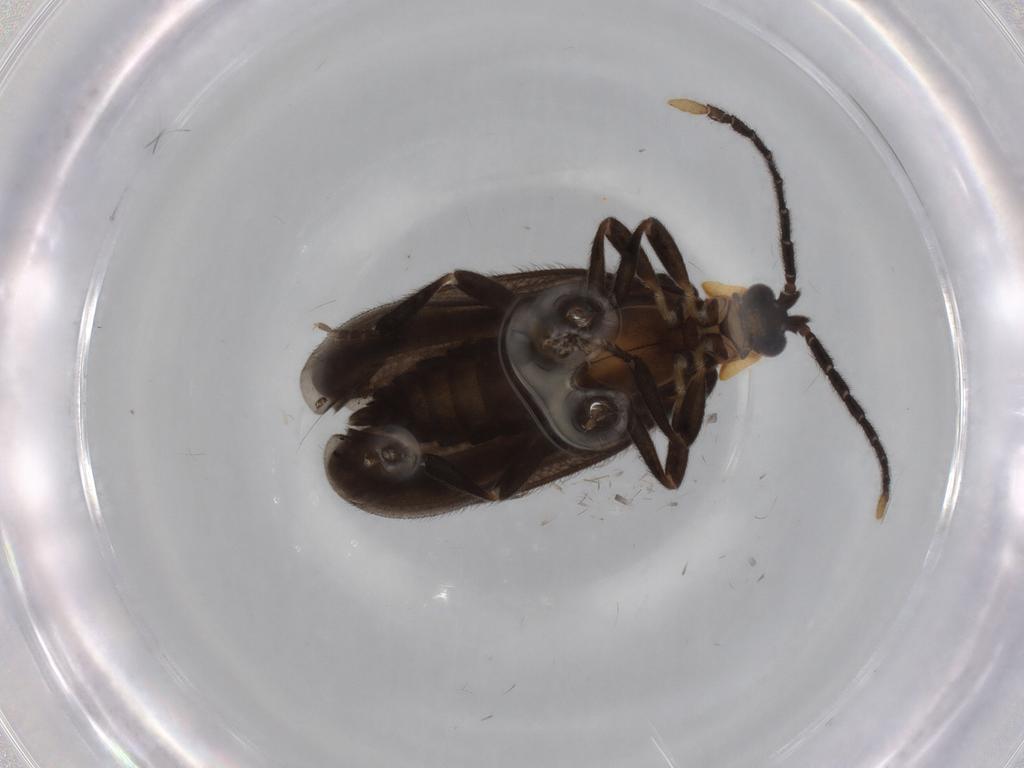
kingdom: Animalia
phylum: Arthropoda
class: Insecta
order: Coleoptera
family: Lycidae
